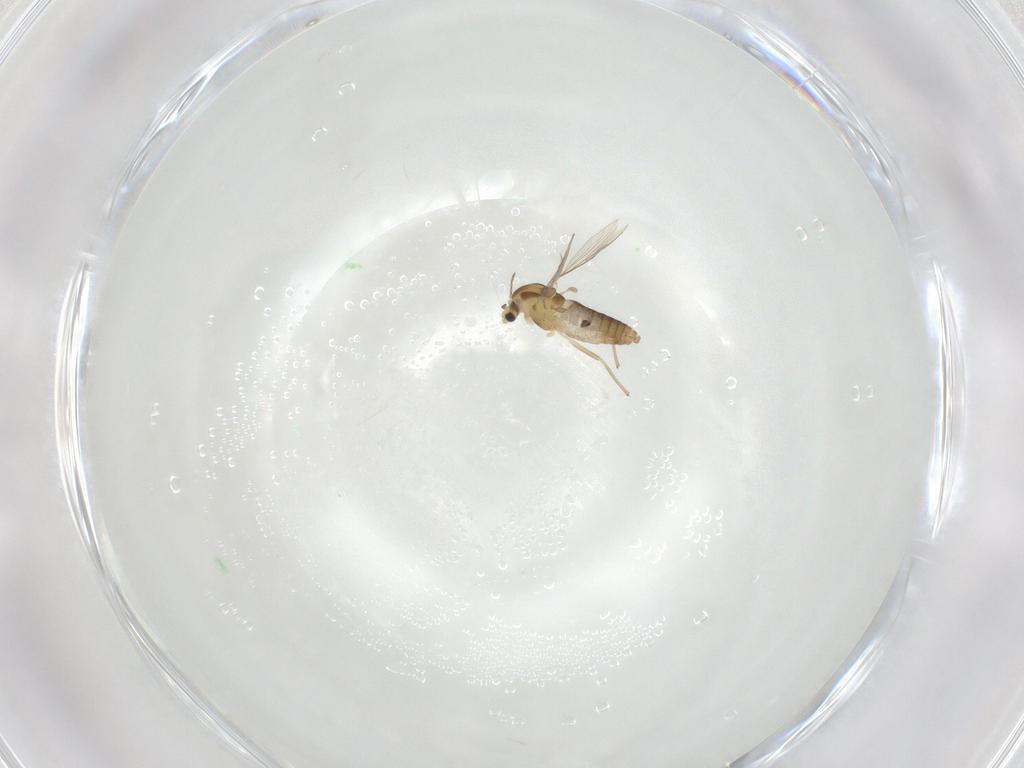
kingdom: Animalia
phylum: Arthropoda
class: Insecta
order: Diptera
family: Chironomidae
